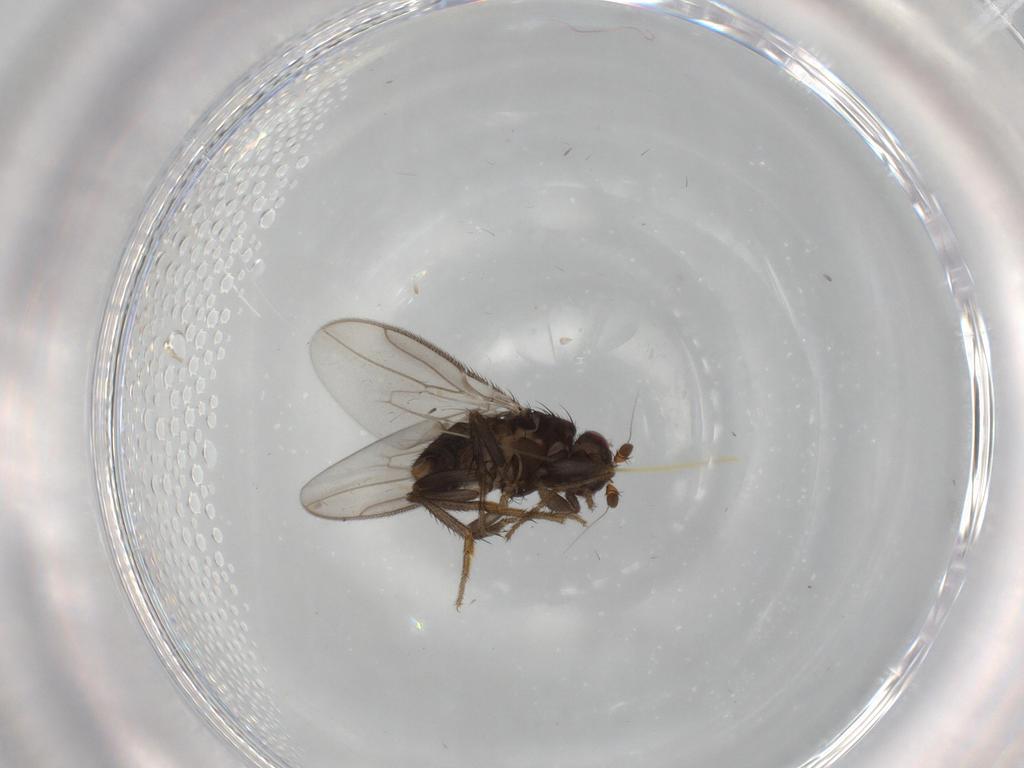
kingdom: Animalia
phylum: Arthropoda
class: Insecta
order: Diptera
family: Sphaeroceridae
